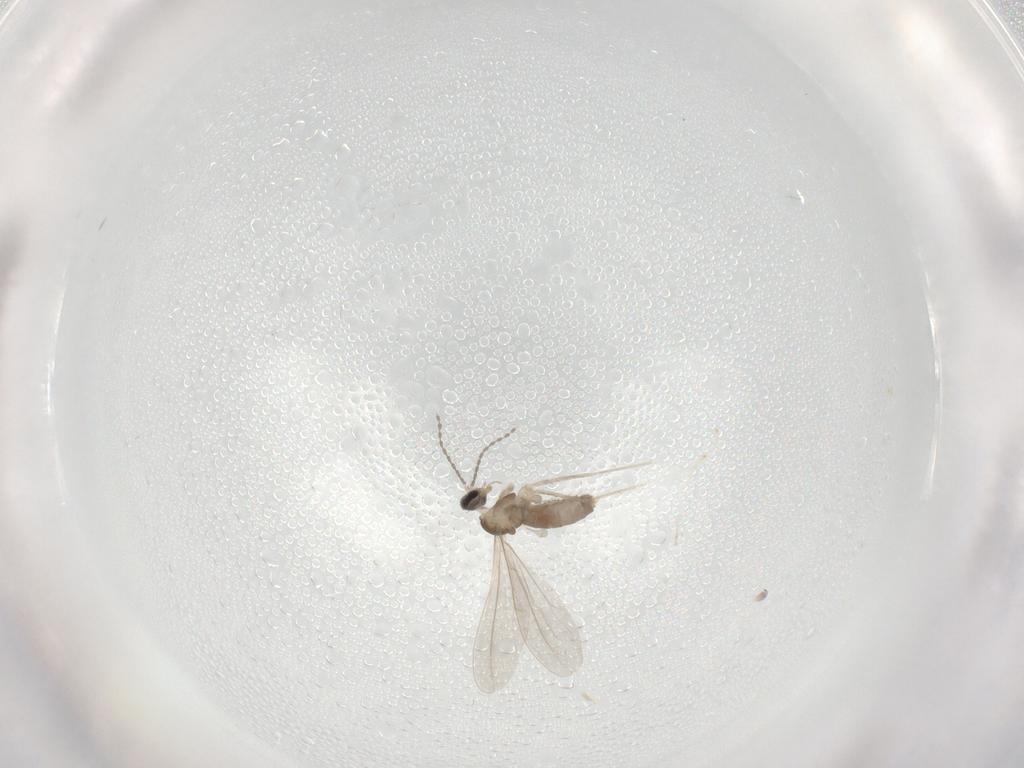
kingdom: Animalia
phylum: Arthropoda
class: Insecta
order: Diptera
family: Cecidomyiidae
